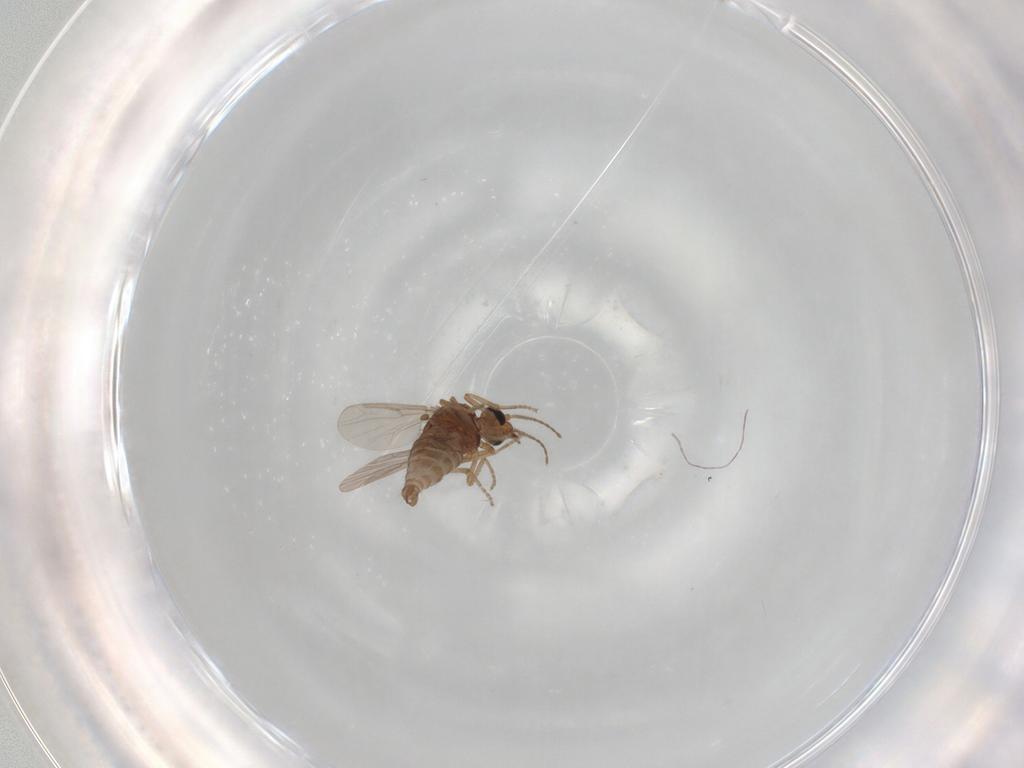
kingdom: Animalia
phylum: Arthropoda
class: Insecta
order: Diptera
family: Ceratopogonidae
